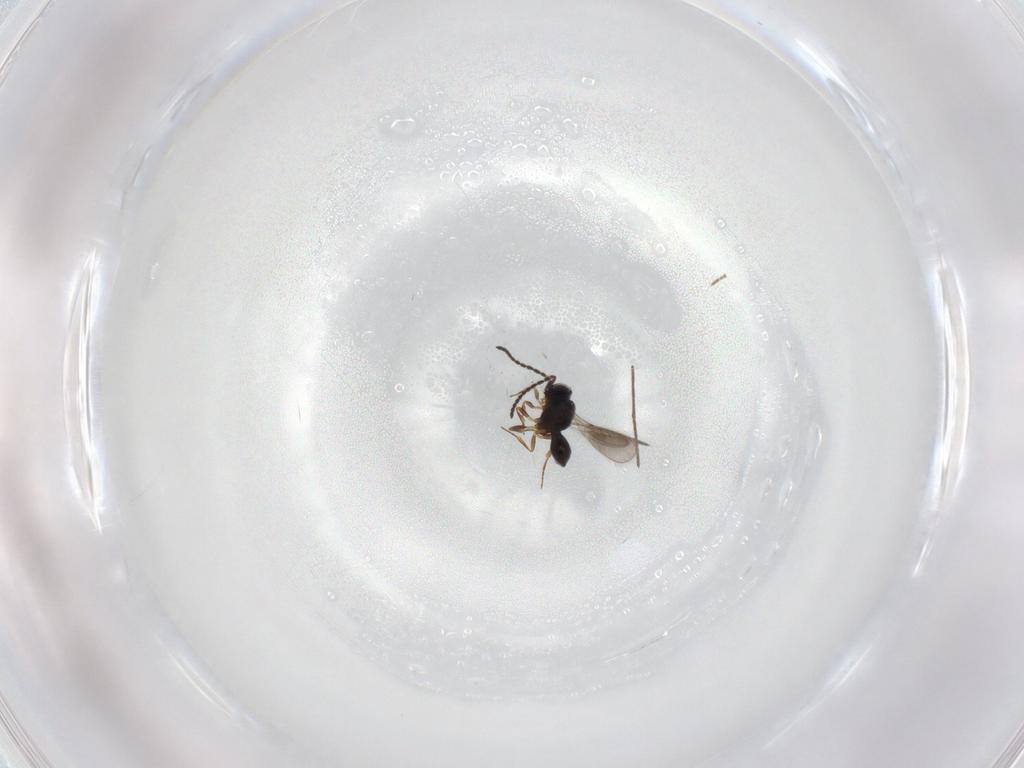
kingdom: Animalia
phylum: Arthropoda
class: Insecta
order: Hymenoptera
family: Scelionidae
